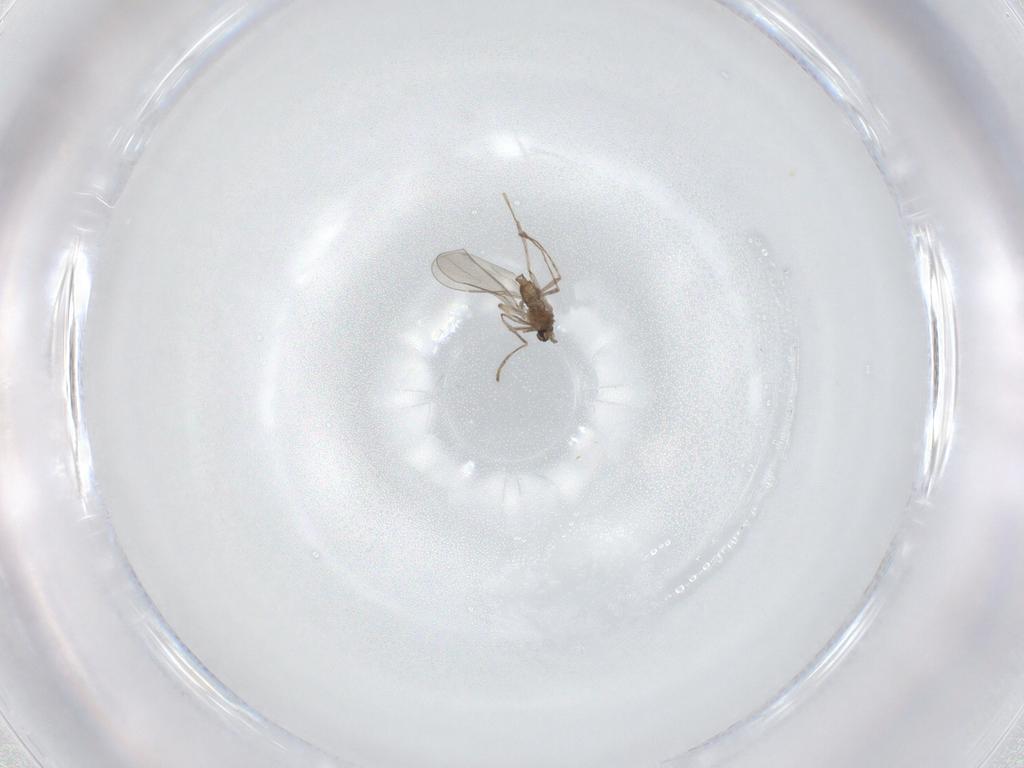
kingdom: Animalia
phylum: Arthropoda
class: Insecta
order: Diptera
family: Cecidomyiidae
